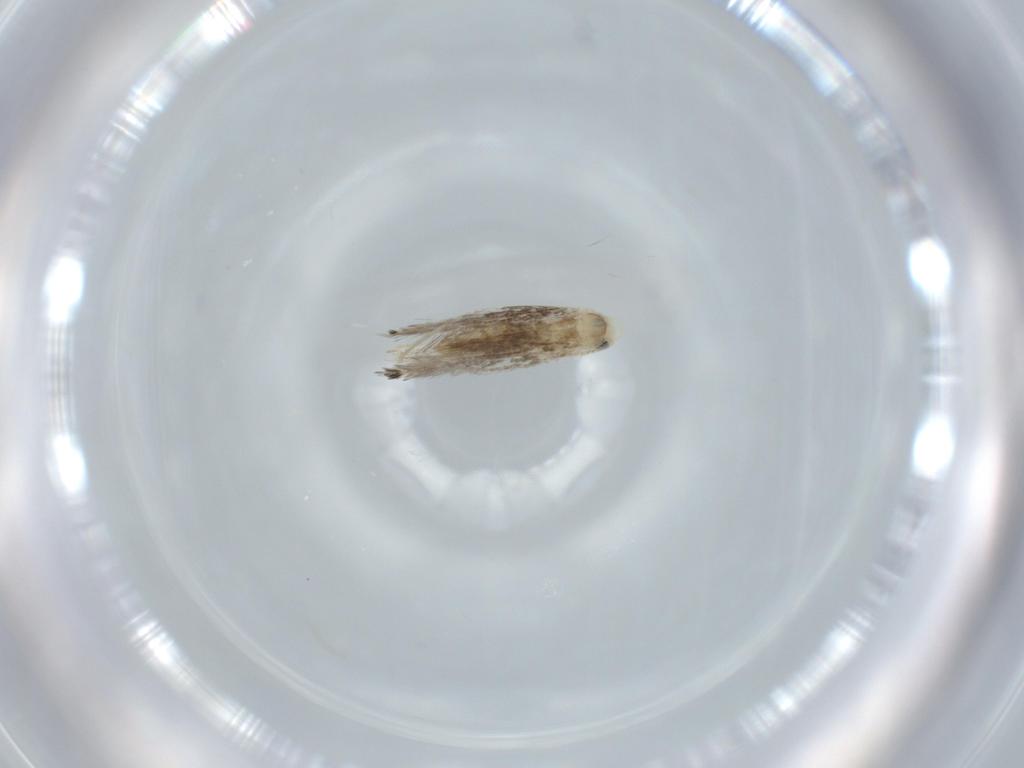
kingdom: Animalia
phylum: Arthropoda
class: Insecta
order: Lepidoptera
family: Gracillariidae
